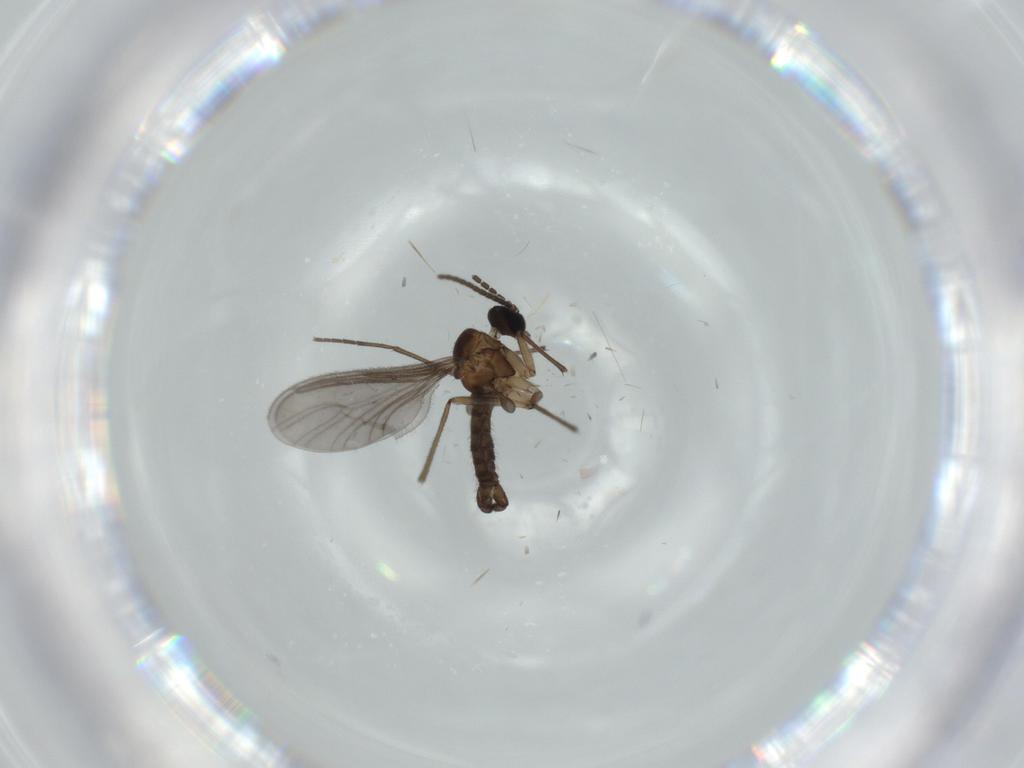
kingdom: Animalia
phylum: Arthropoda
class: Insecta
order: Diptera
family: Sciaridae
